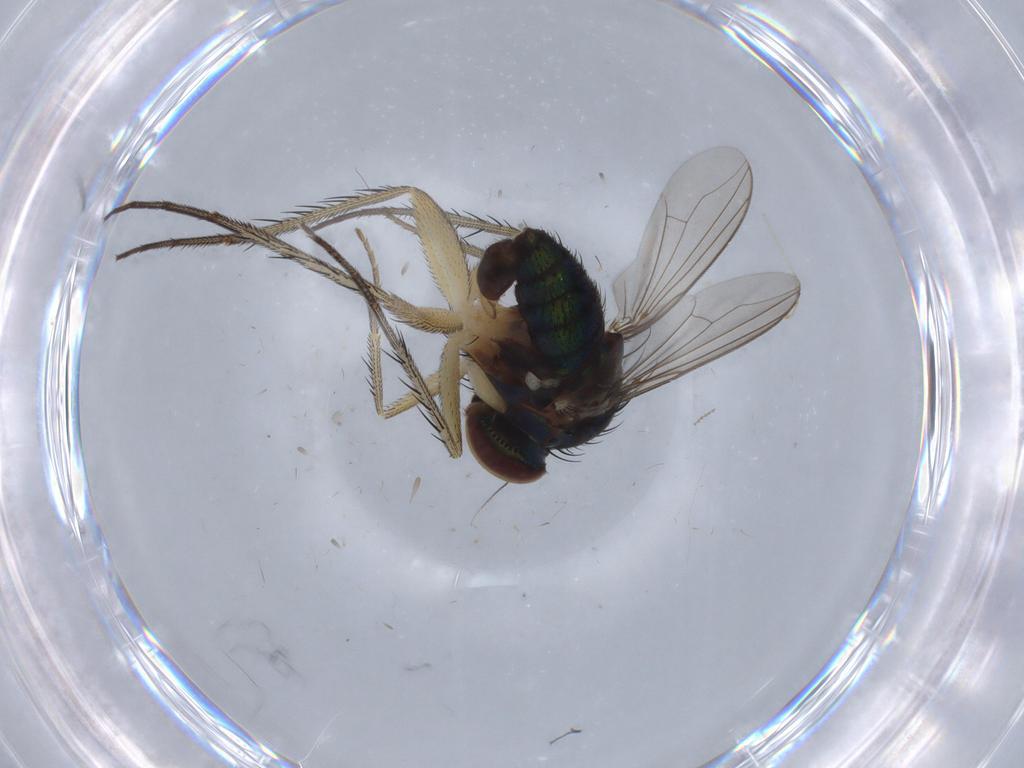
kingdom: Animalia
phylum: Arthropoda
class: Insecta
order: Diptera
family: Dolichopodidae
